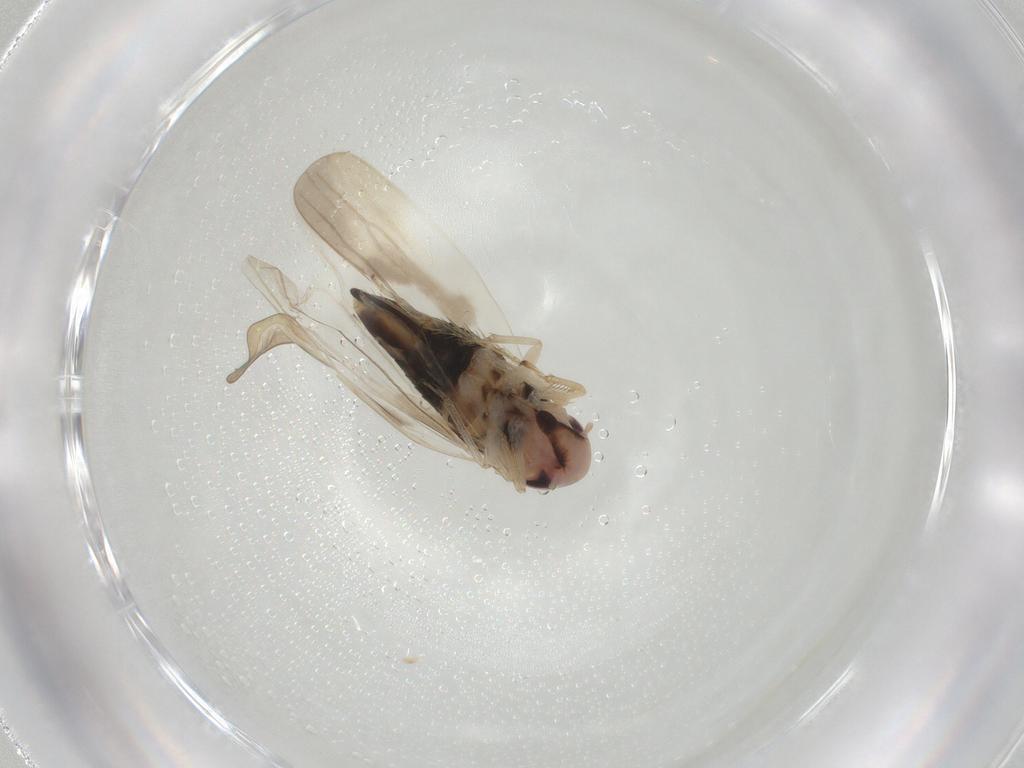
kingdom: Animalia
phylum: Arthropoda
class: Insecta
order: Hemiptera
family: Cicadellidae
